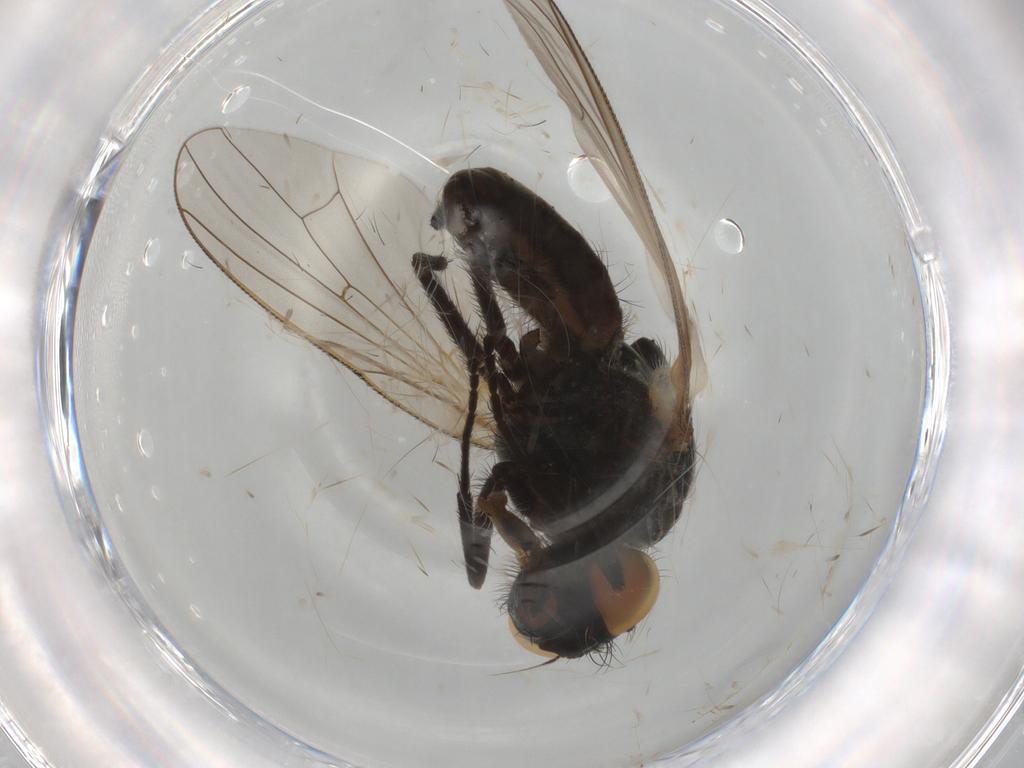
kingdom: Animalia
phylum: Arthropoda
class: Insecta
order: Diptera
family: Anthomyiidae
